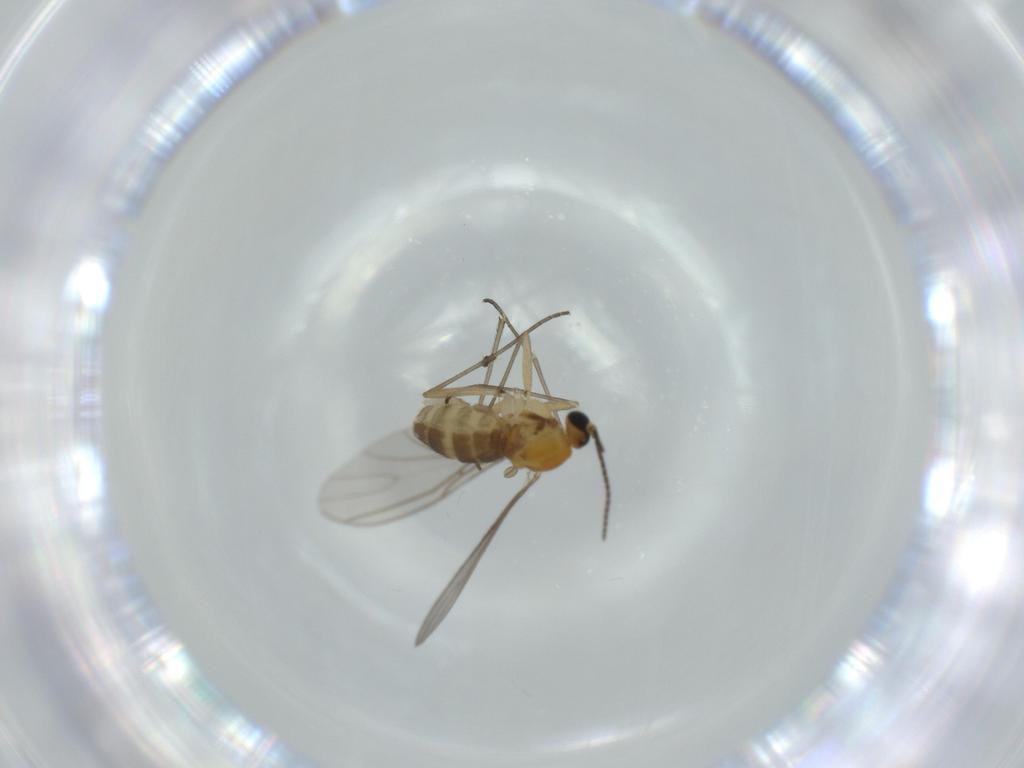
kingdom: Animalia
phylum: Arthropoda
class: Insecta
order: Diptera
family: Sciaridae
